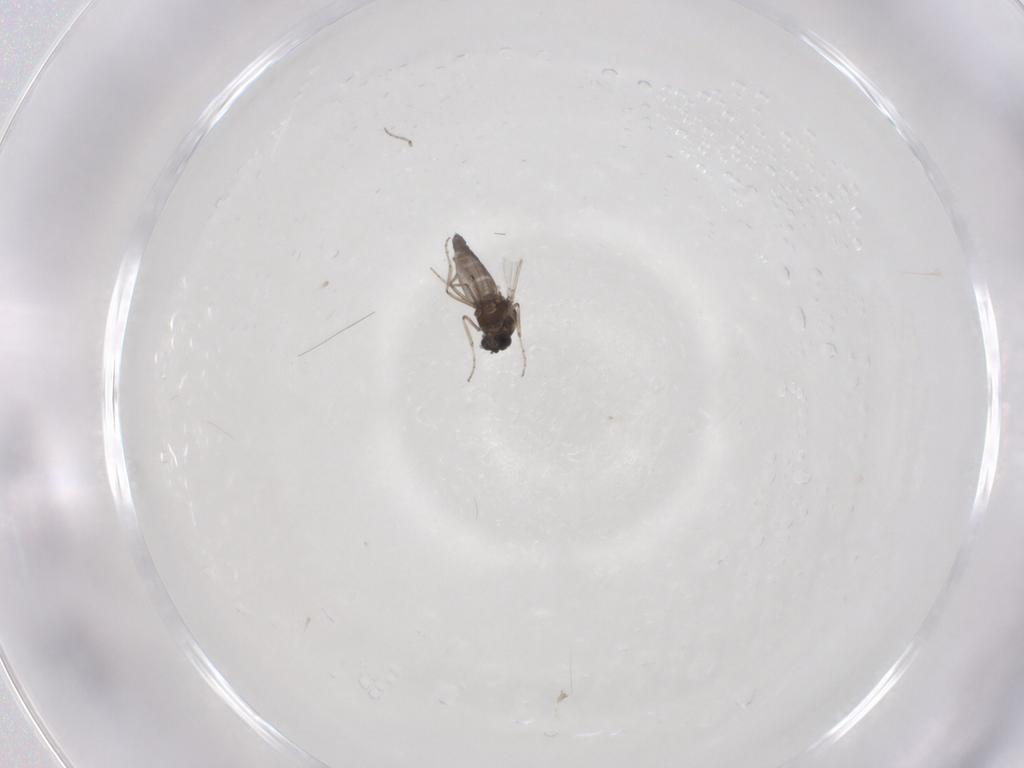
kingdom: Animalia
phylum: Arthropoda
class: Insecta
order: Diptera
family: Ceratopogonidae
